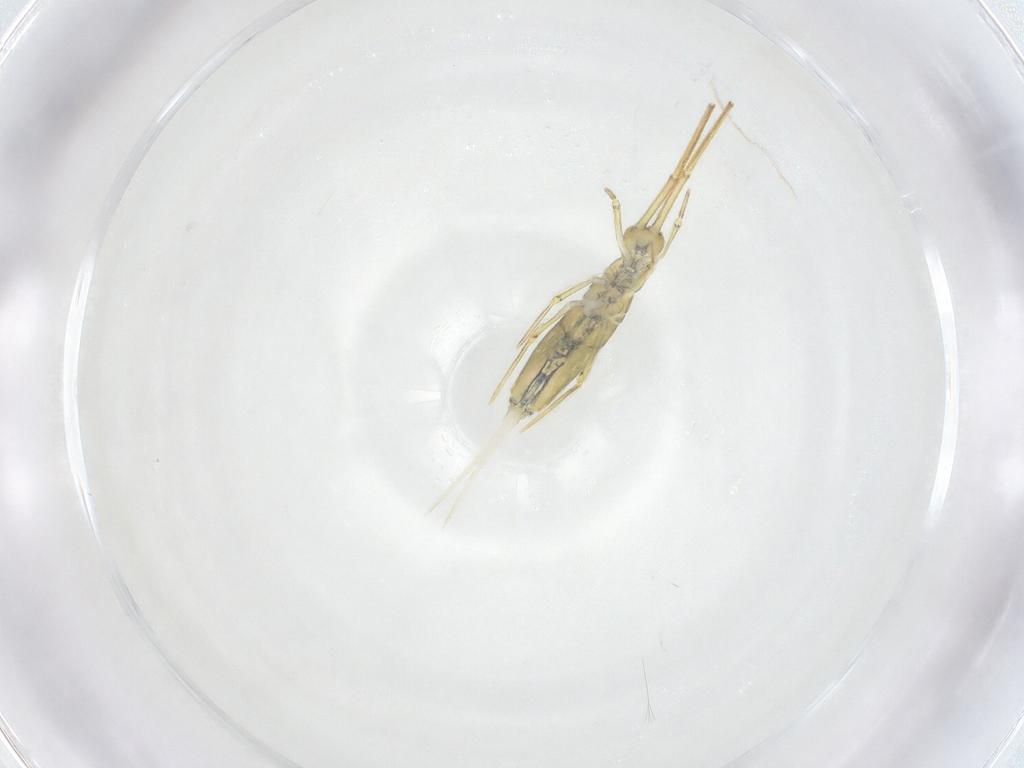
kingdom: Animalia
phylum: Arthropoda
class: Collembola
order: Entomobryomorpha
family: Paronellidae
